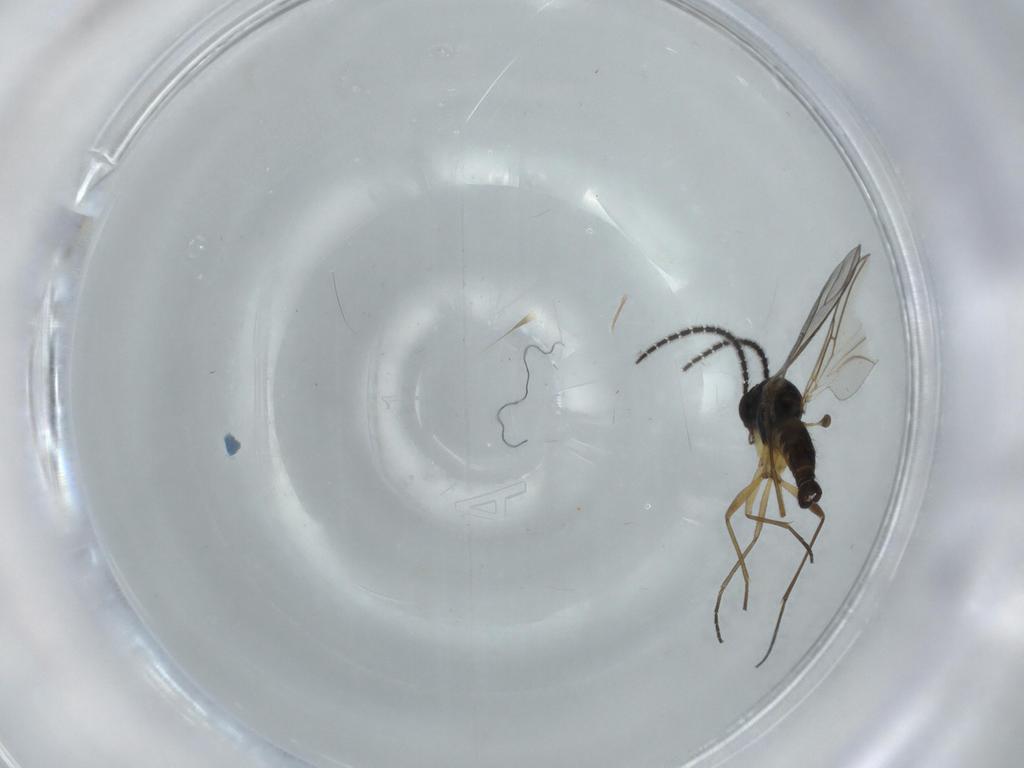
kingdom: Animalia
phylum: Arthropoda
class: Insecta
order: Diptera
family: Sciaridae
